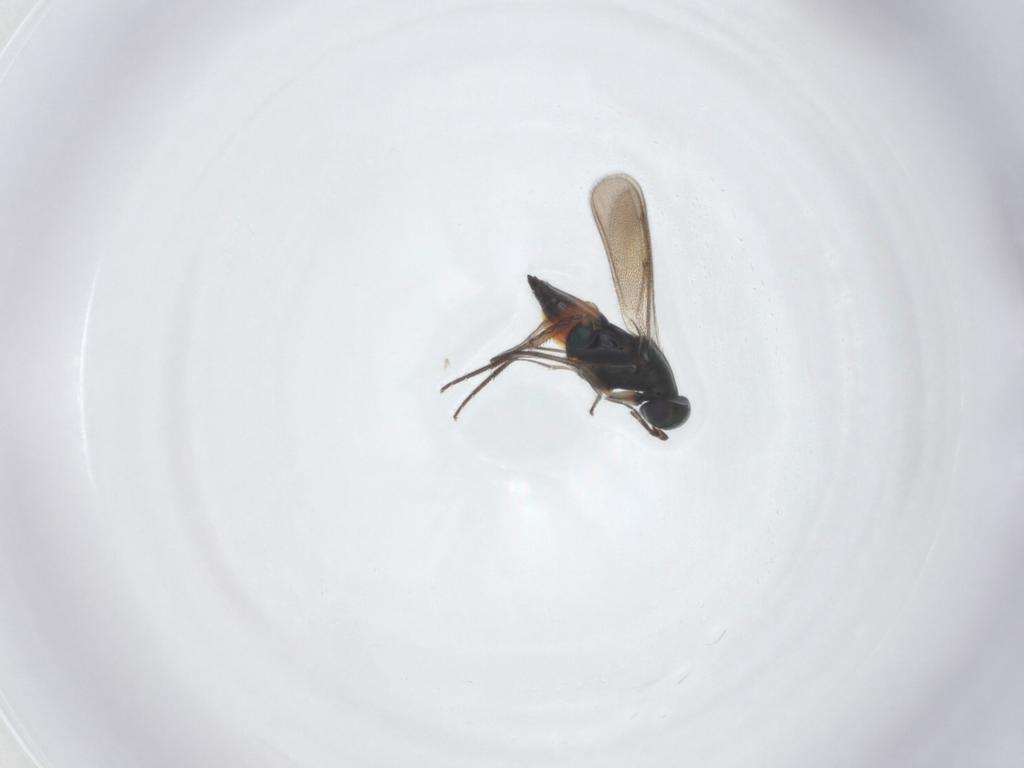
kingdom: Animalia
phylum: Arthropoda
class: Insecta
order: Hymenoptera
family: Eulophidae
